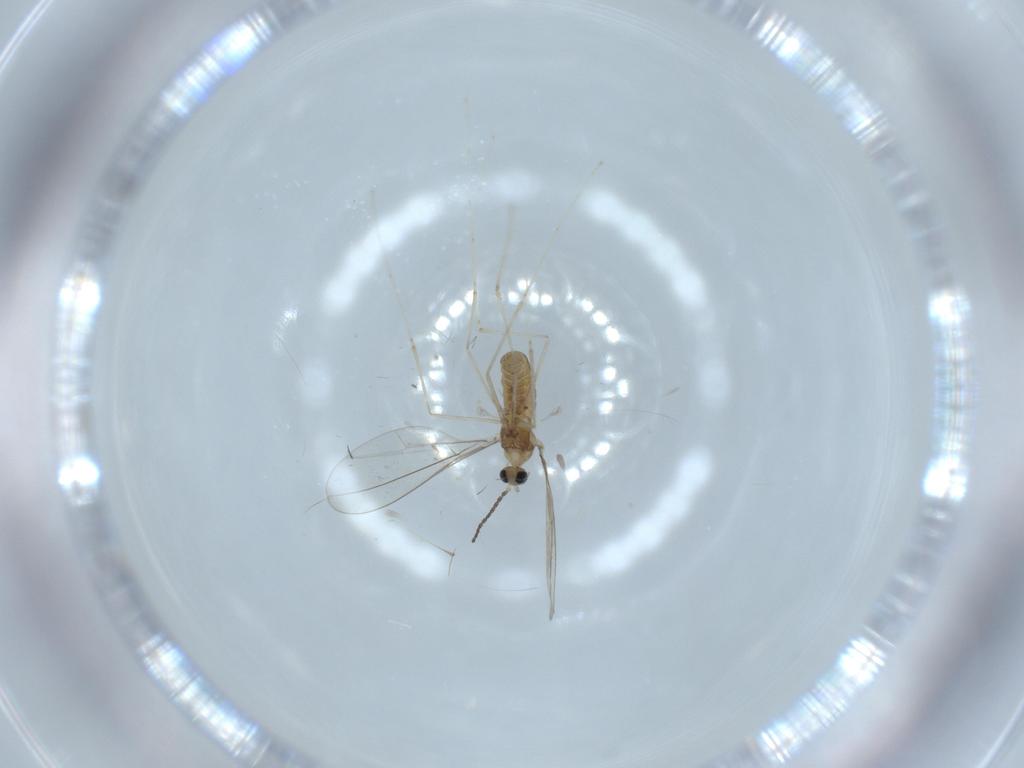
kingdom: Animalia
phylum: Arthropoda
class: Insecta
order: Diptera
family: Cecidomyiidae
